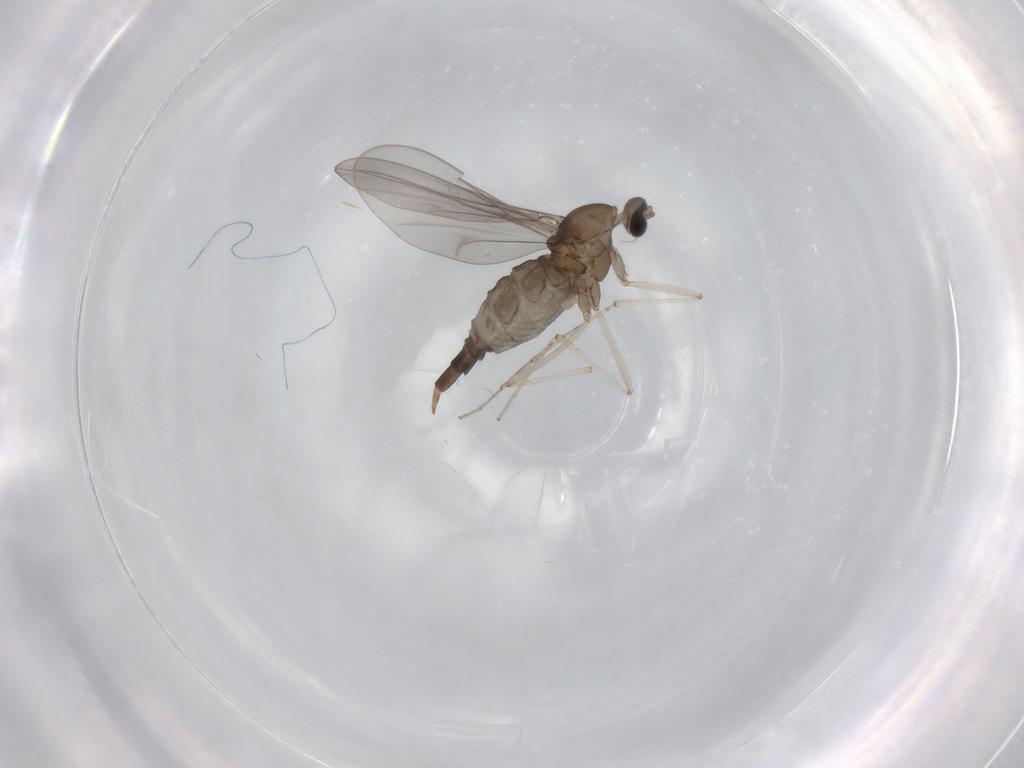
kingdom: Animalia
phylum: Arthropoda
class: Insecta
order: Diptera
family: Cecidomyiidae
